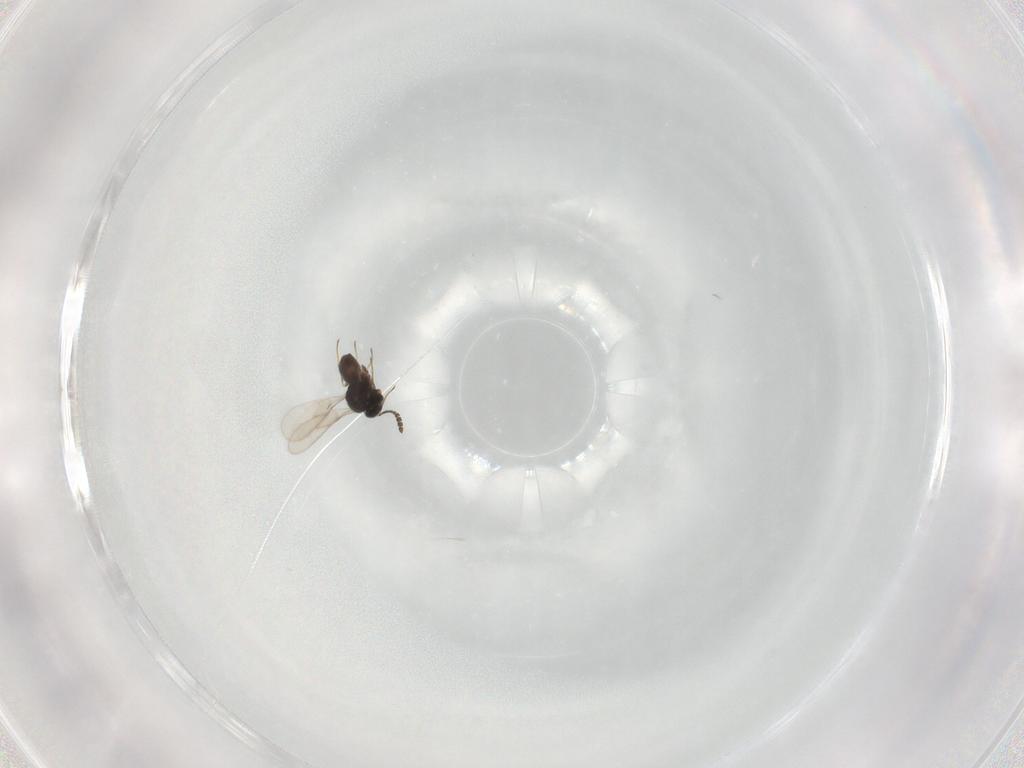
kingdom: Animalia
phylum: Arthropoda
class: Insecta
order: Hymenoptera
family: Scelionidae
